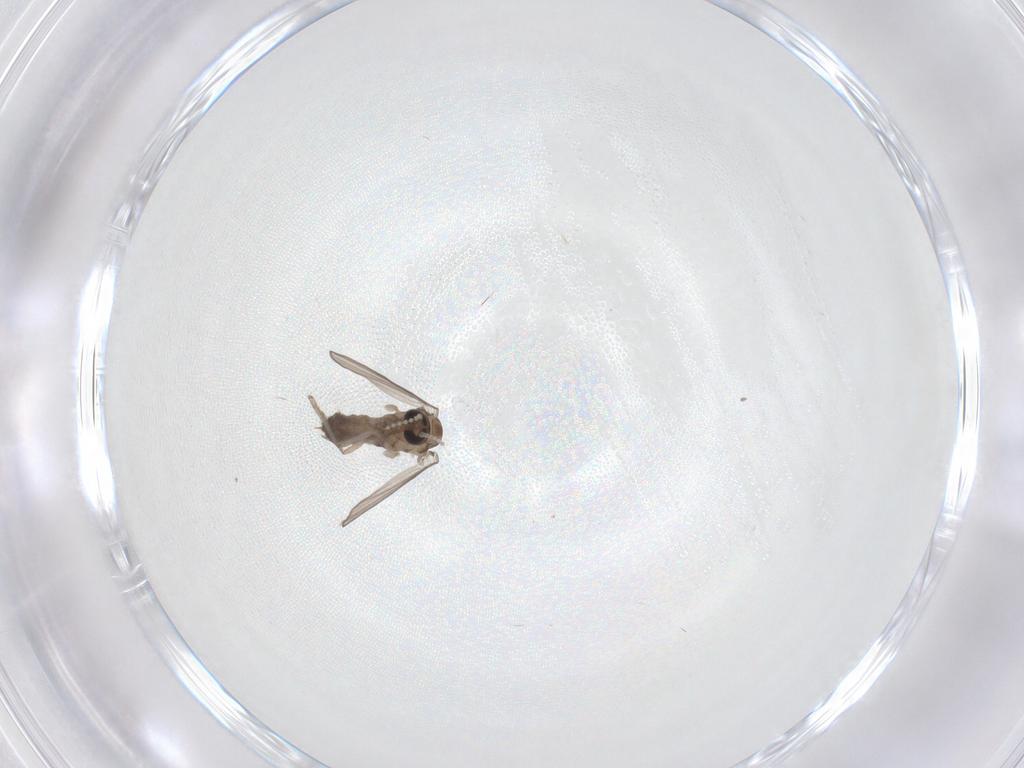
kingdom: Animalia
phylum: Arthropoda
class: Insecta
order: Diptera
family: Psychodidae
